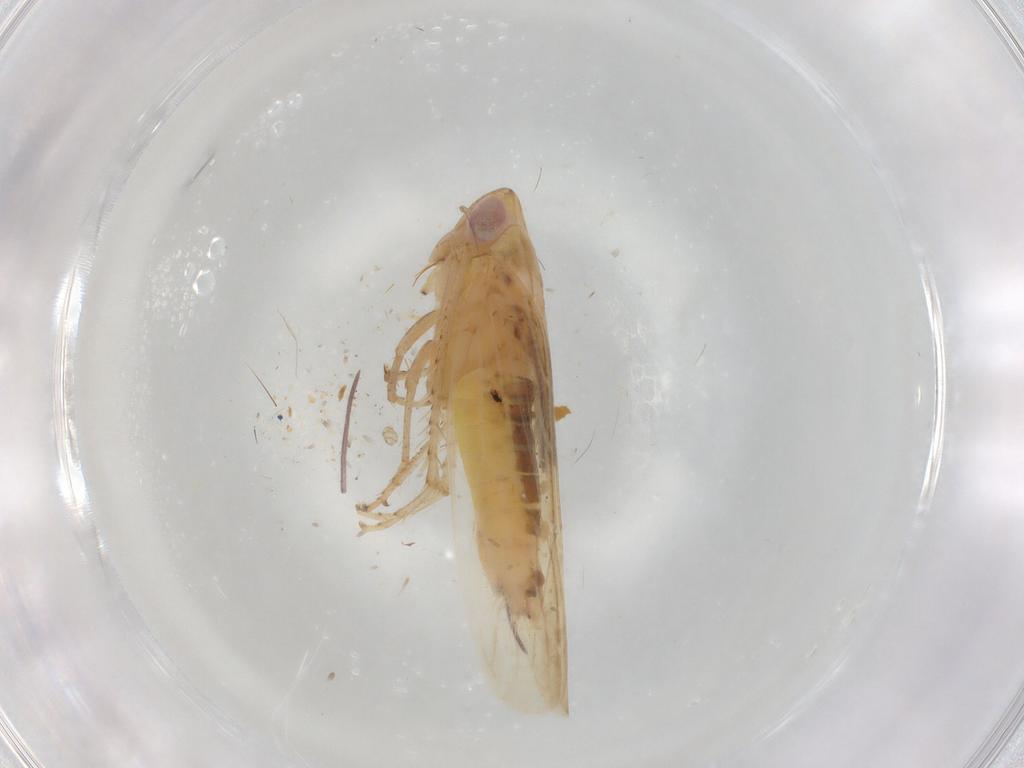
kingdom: Animalia
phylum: Arthropoda
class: Insecta
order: Hemiptera
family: Cicadellidae
